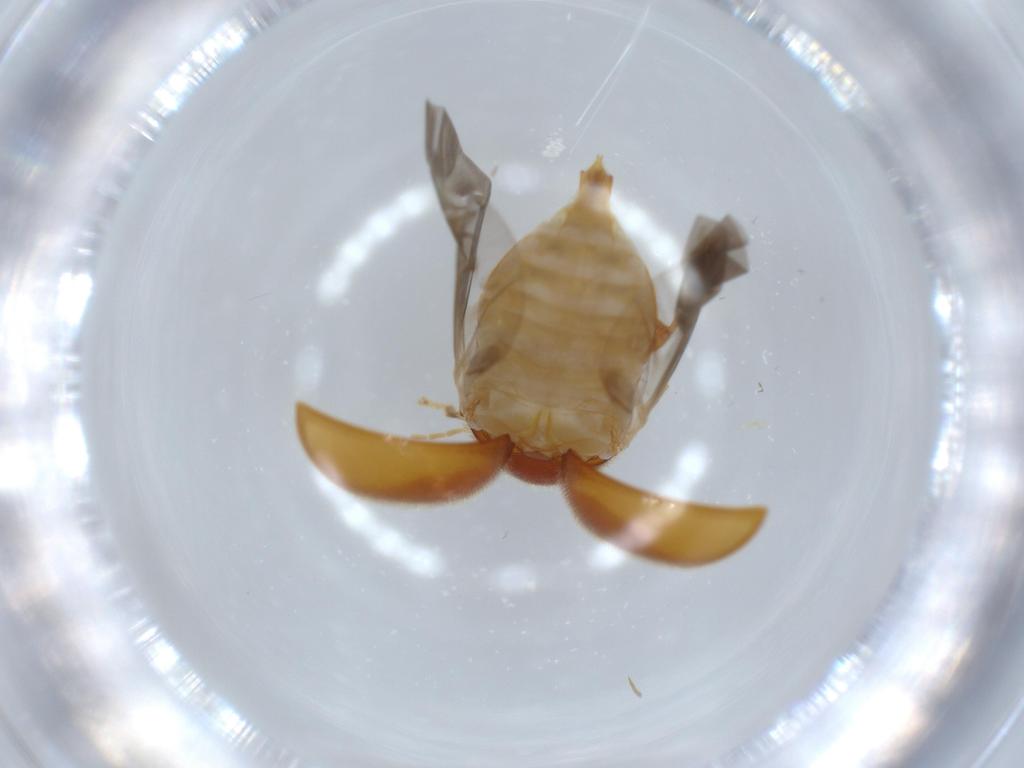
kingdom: Animalia
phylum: Arthropoda
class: Insecta
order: Coleoptera
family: Scirtidae
